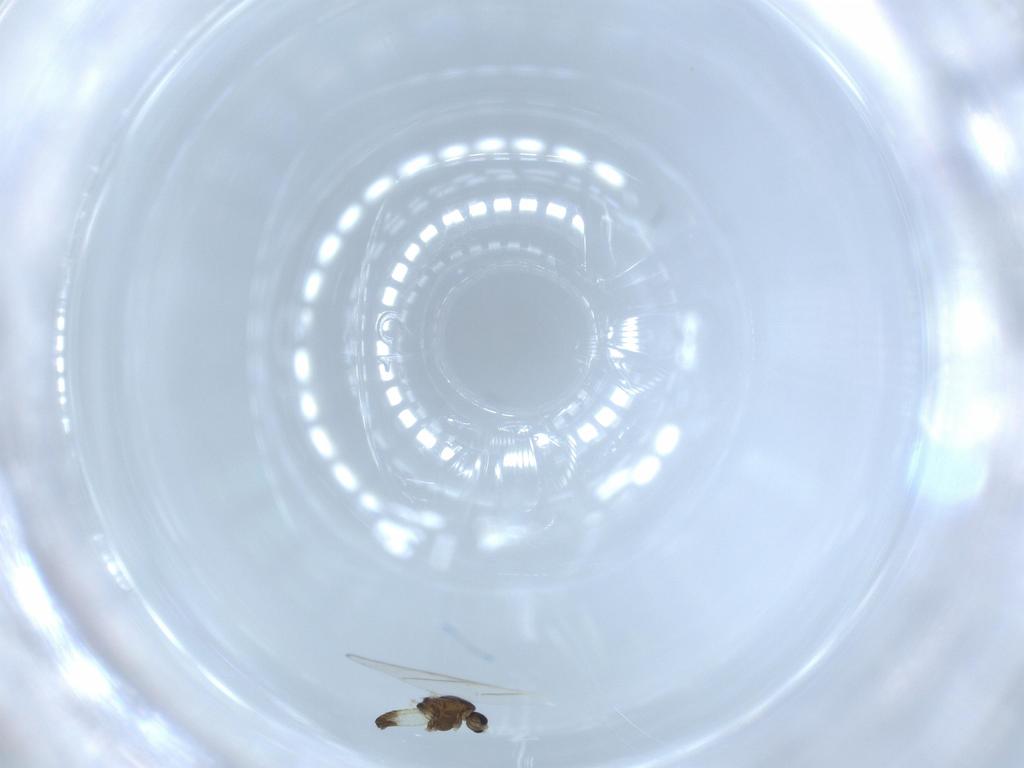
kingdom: Animalia
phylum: Arthropoda
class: Insecta
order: Diptera
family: Chironomidae
